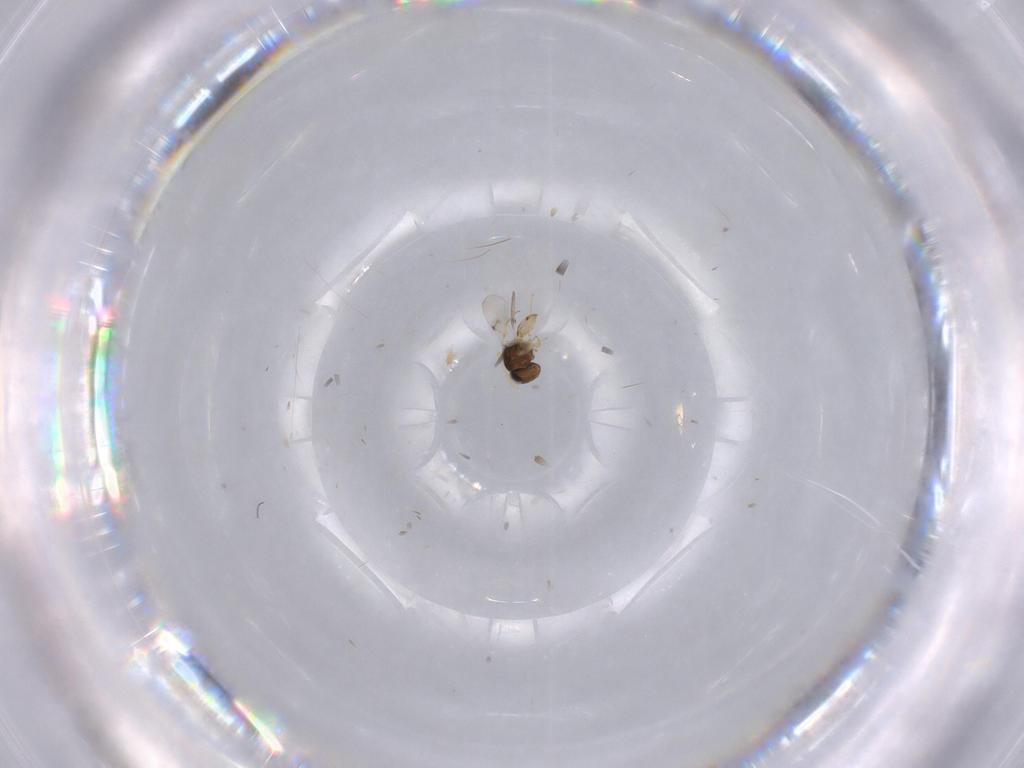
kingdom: Animalia
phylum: Arthropoda
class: Insecta
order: Hymenoptera
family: Scelionidae
